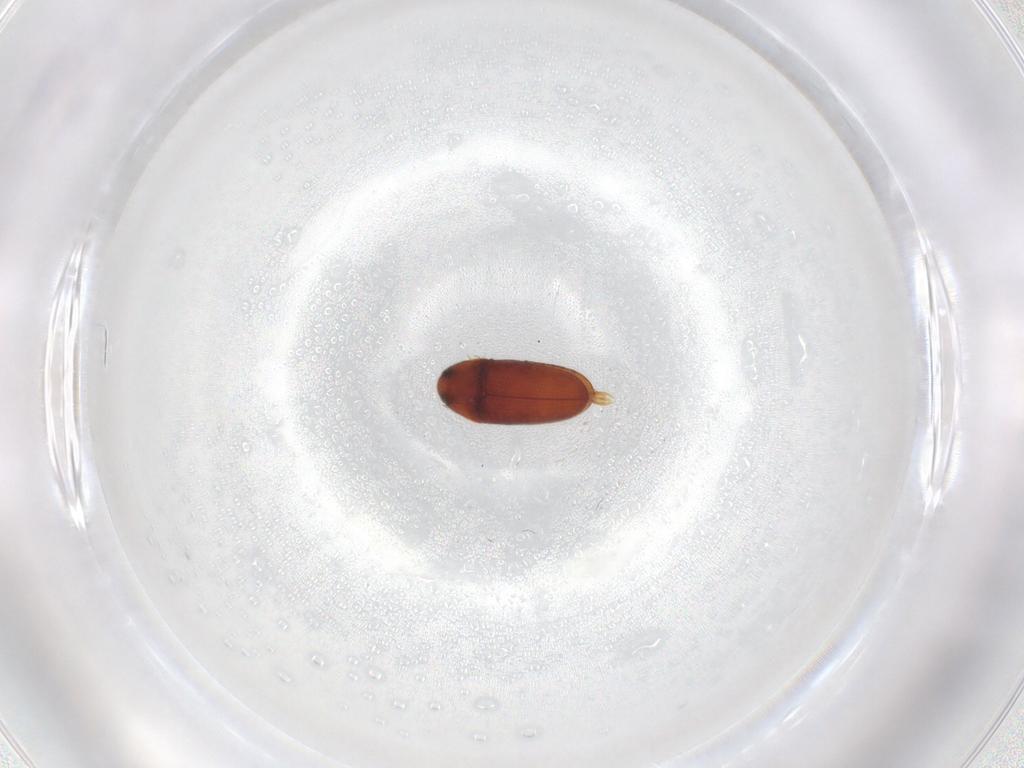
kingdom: Animalia
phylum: Arthropoda
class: Insecta
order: Coleoptera
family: Throscidae
